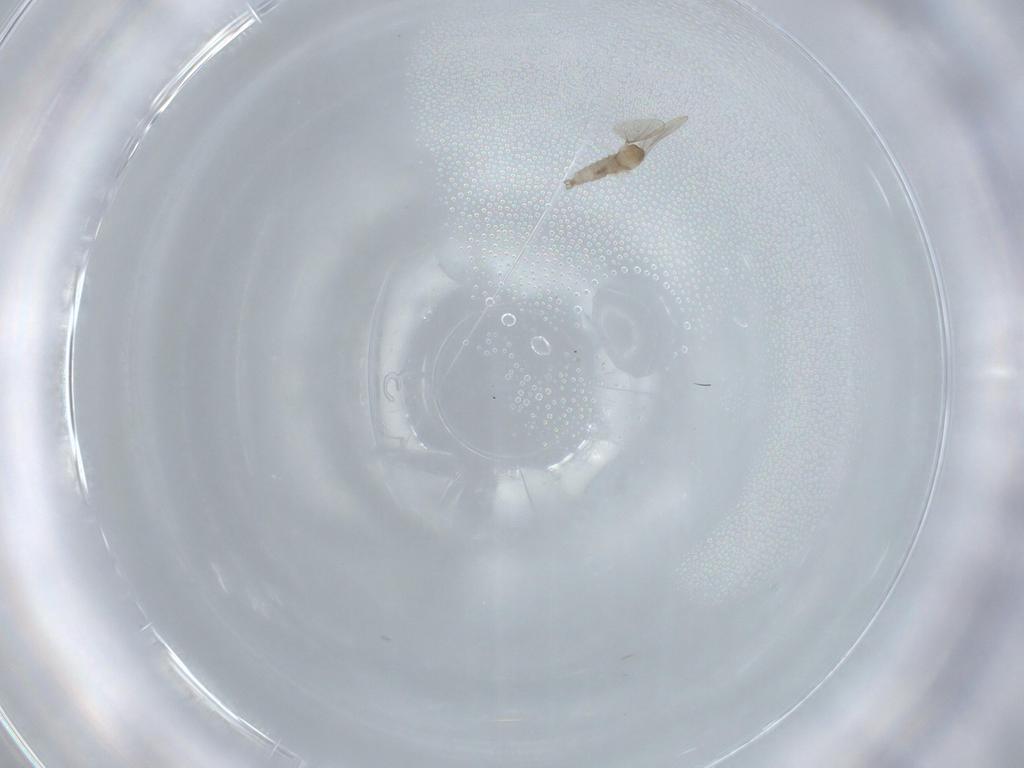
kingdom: Animalia
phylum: Arthropoda
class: Insecta
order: Diptera
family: Cecidomyiidae
